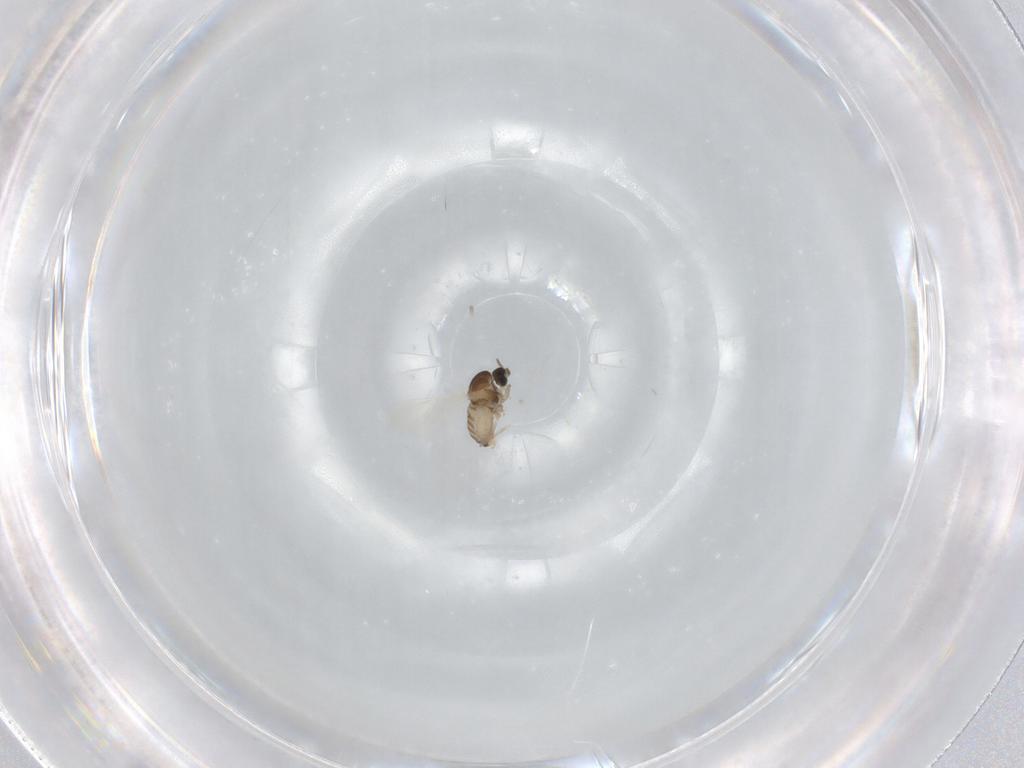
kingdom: Animalia
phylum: Arthropoda
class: Insecta
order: Diptera
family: Cecidomyiidae
